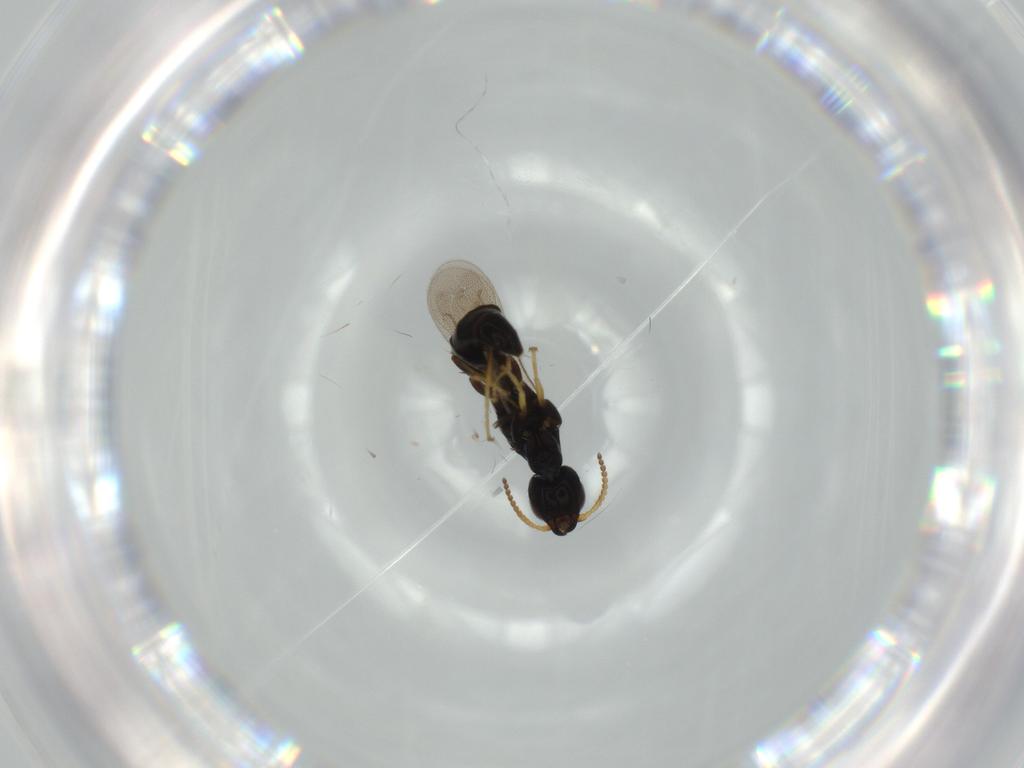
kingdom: Animalia
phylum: Arthropoda
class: Insecta
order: Hymenoptera
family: Bethylidae
